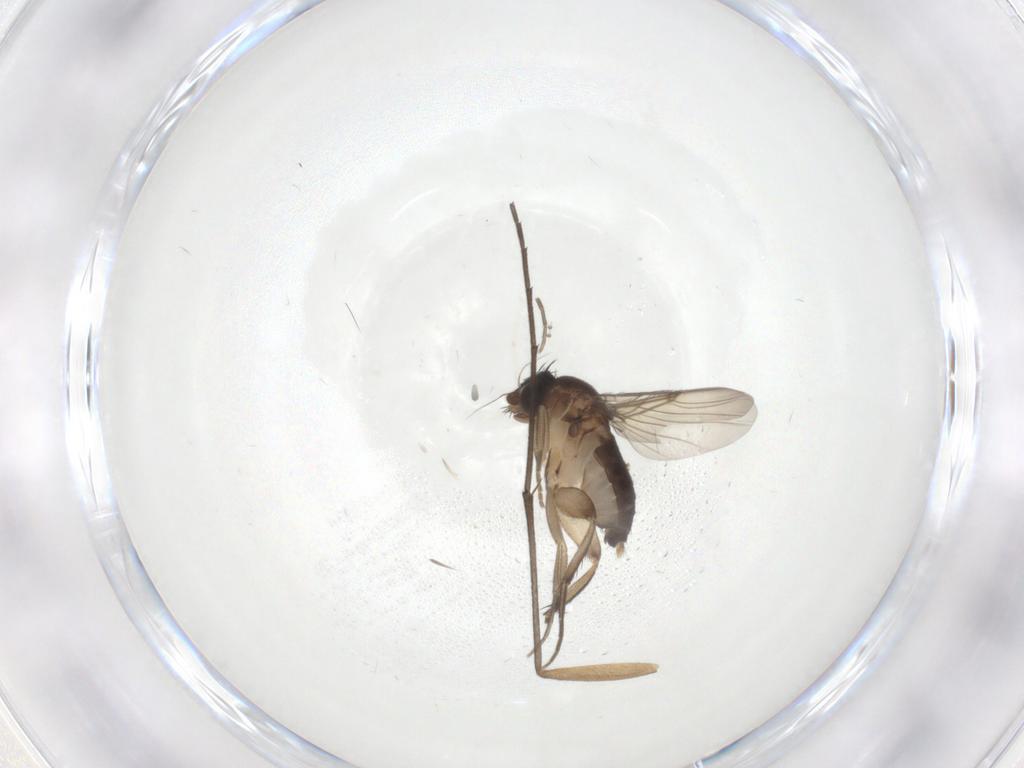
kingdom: Animalia
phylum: Arthropoda
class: Insecta
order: Diptera
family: Phoridae
